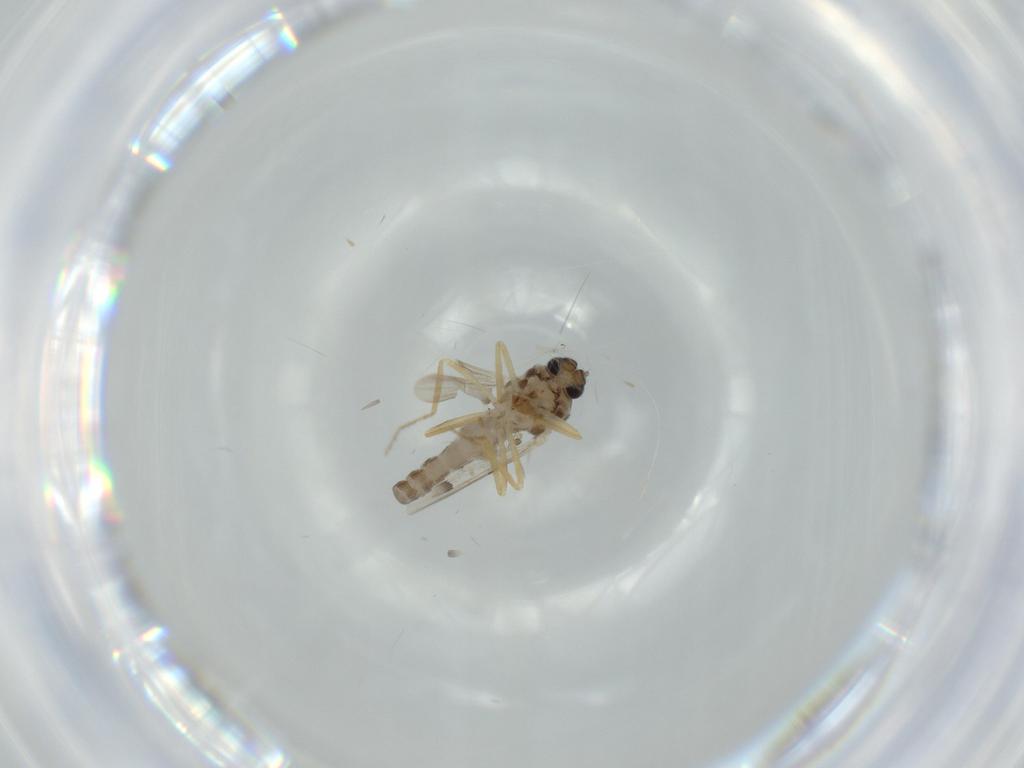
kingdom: Animalia
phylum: Arthropoda
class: Insecta
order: Diptera
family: Ceratopogonidae
